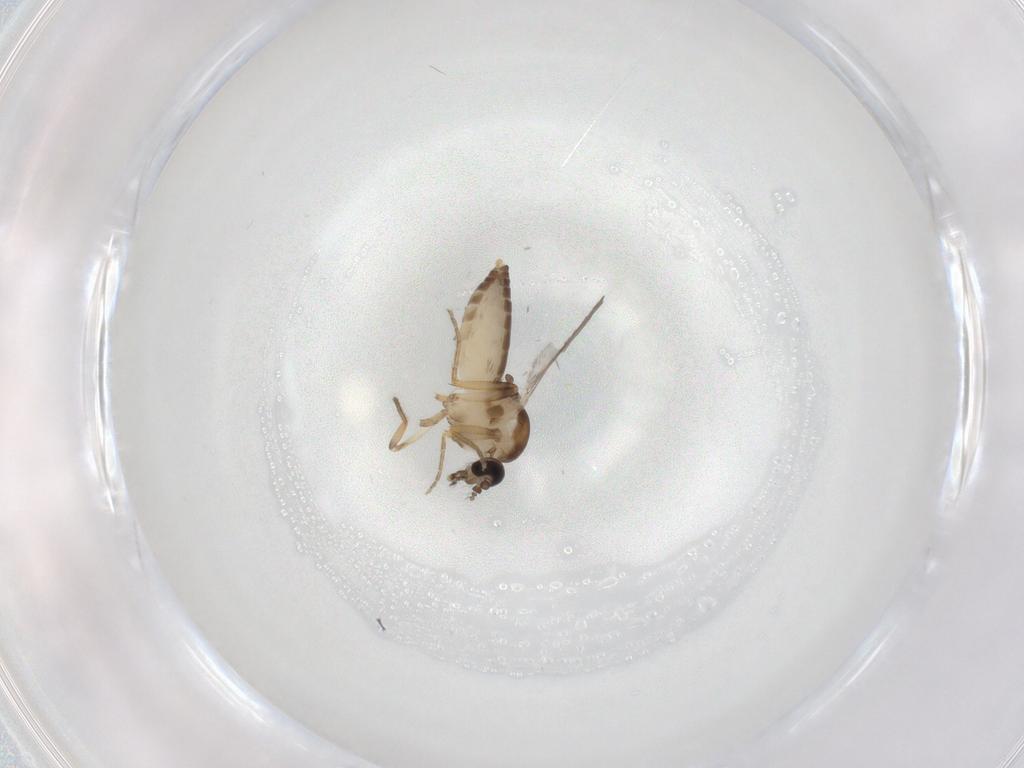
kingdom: Animalia
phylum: Arthropoda
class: Insecta
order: Diptera
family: Ceratopogonidae
